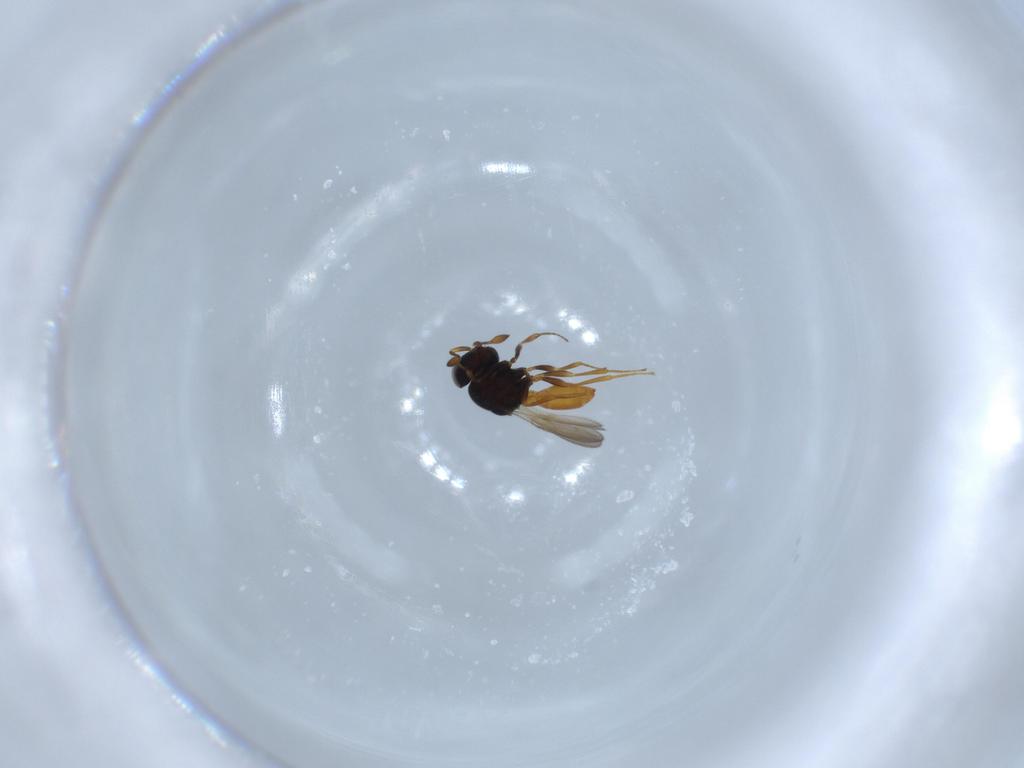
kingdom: Animalia
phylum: Arthropoda
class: Insecta
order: Hymenoptera
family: Scelionidae
